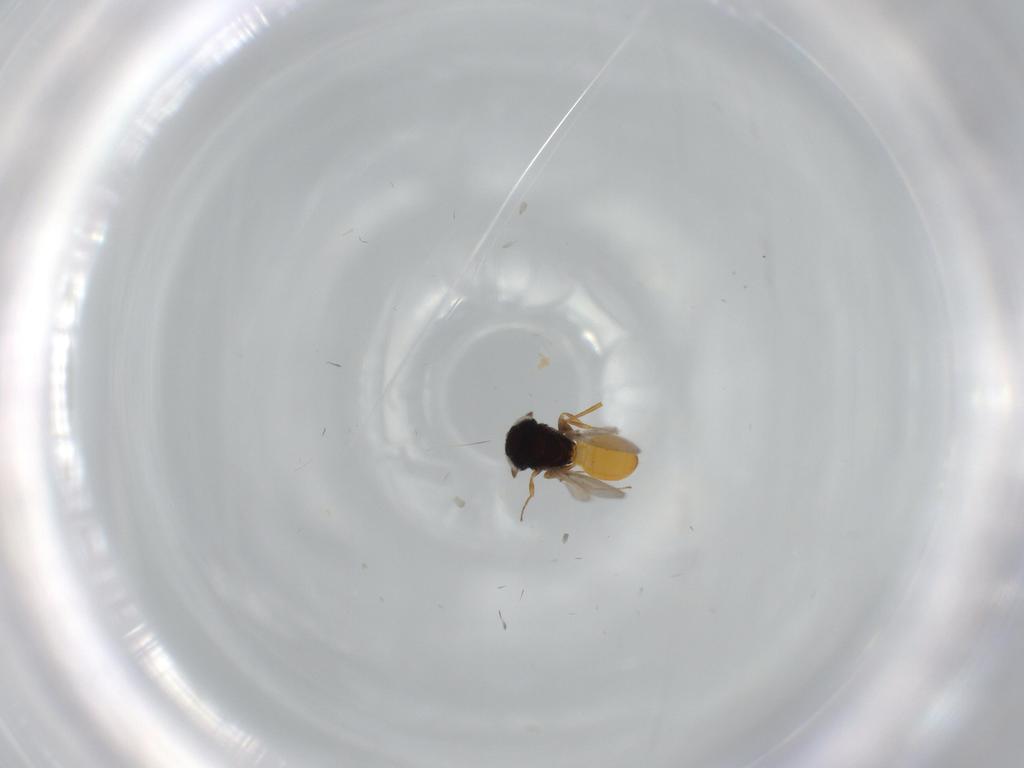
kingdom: Animalia
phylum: Arthropoda
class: Insecta
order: Hymenoptera
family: Scelionidae
